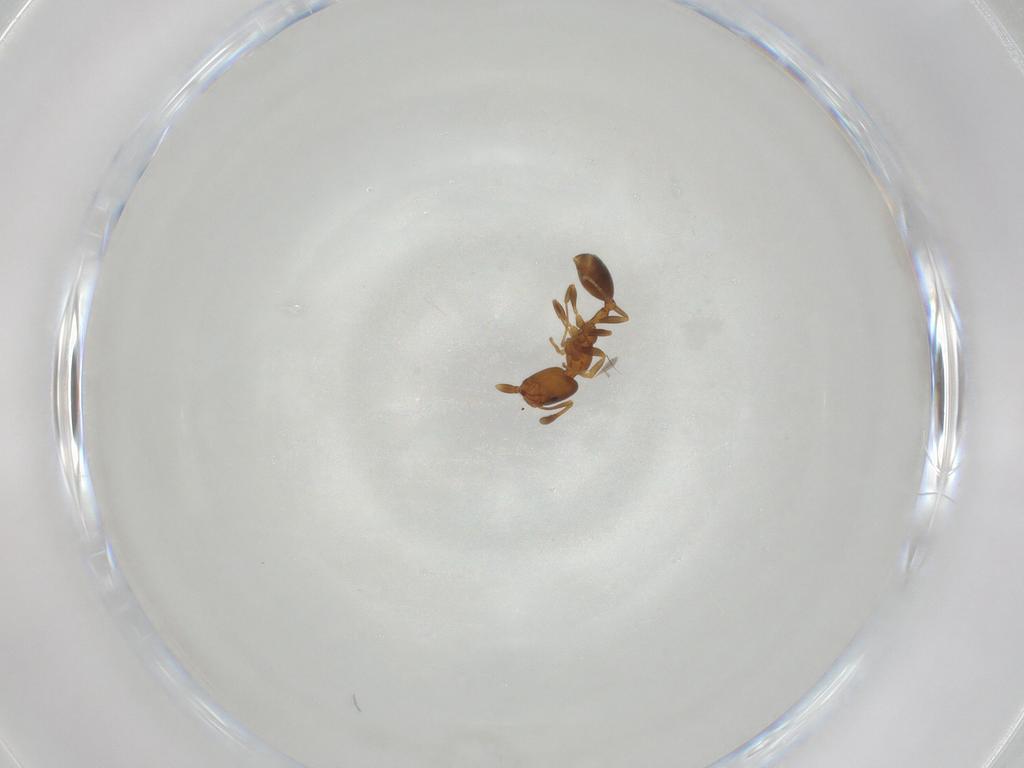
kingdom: Animalia
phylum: Arthropoda
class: Insecta
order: Hymenoptera
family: Formicidae
